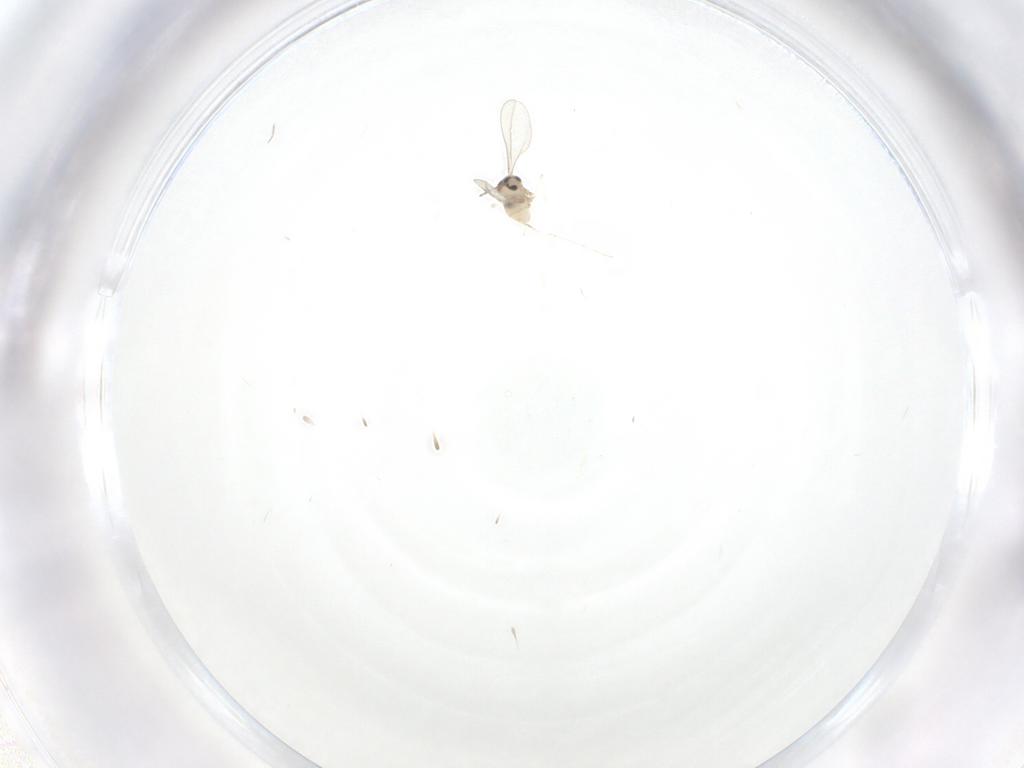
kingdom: Animalia
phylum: Arthropoda
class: Insecta
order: Diptera
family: Cecidomyiidae
